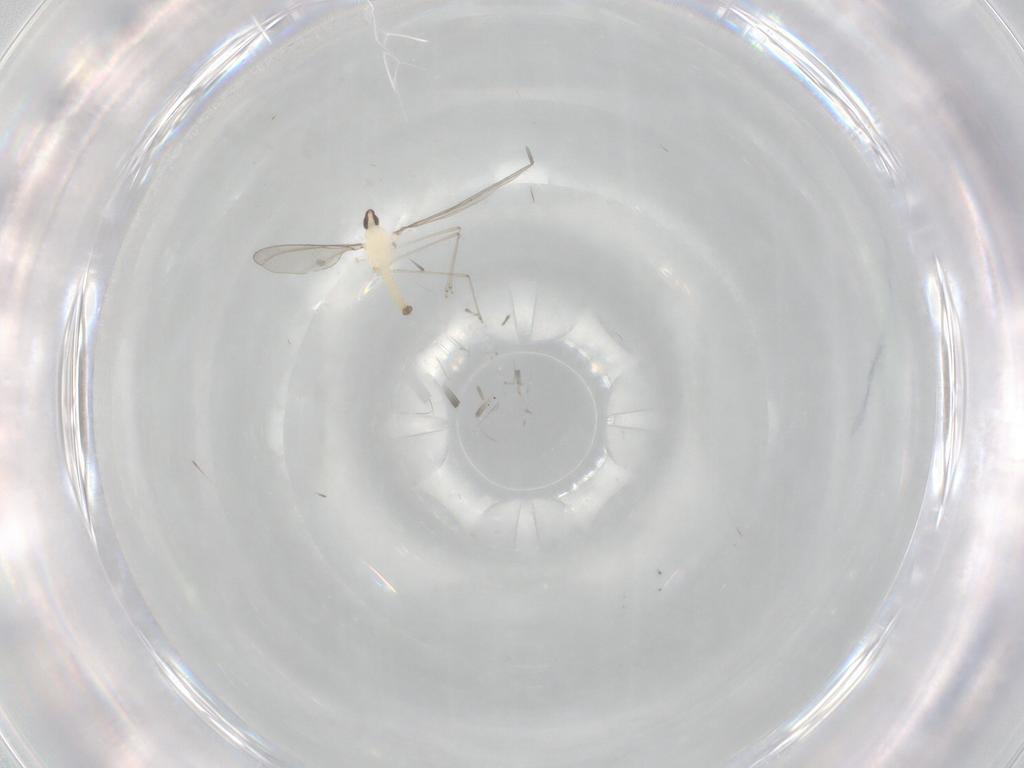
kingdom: Animalia
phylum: Arthropoda
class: Insecta
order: Diptera
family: Cecidomyiidae
